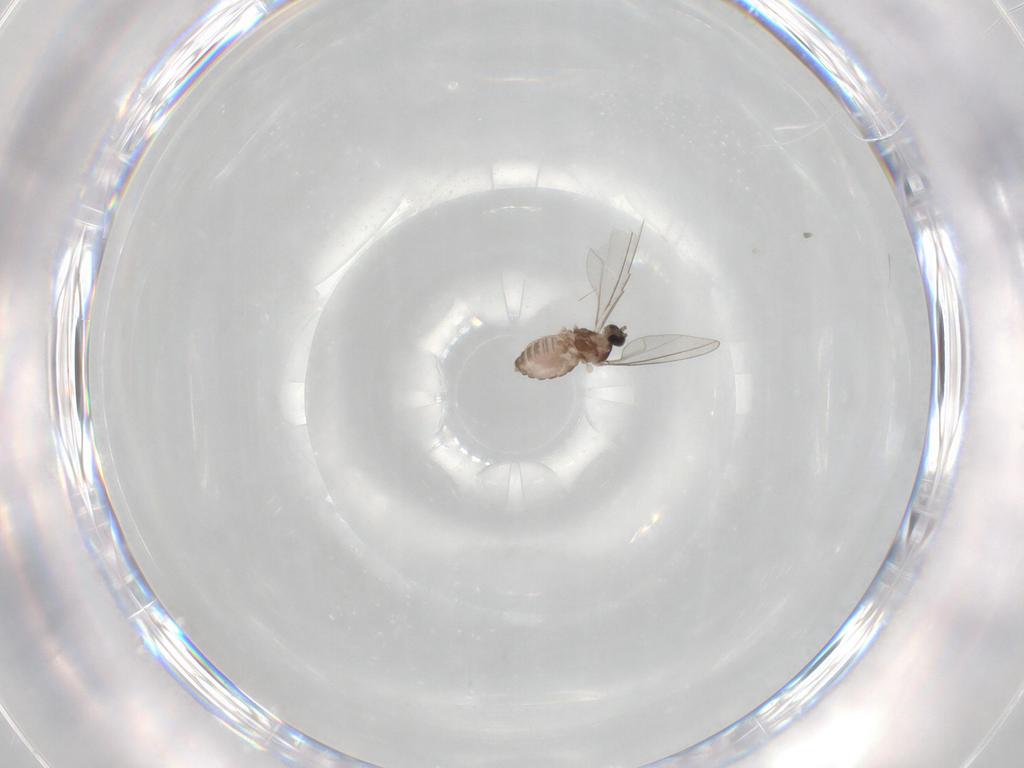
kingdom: Animalia
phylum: Arthropoda
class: Insecta
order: Diptera
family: Cecidomyiidae
